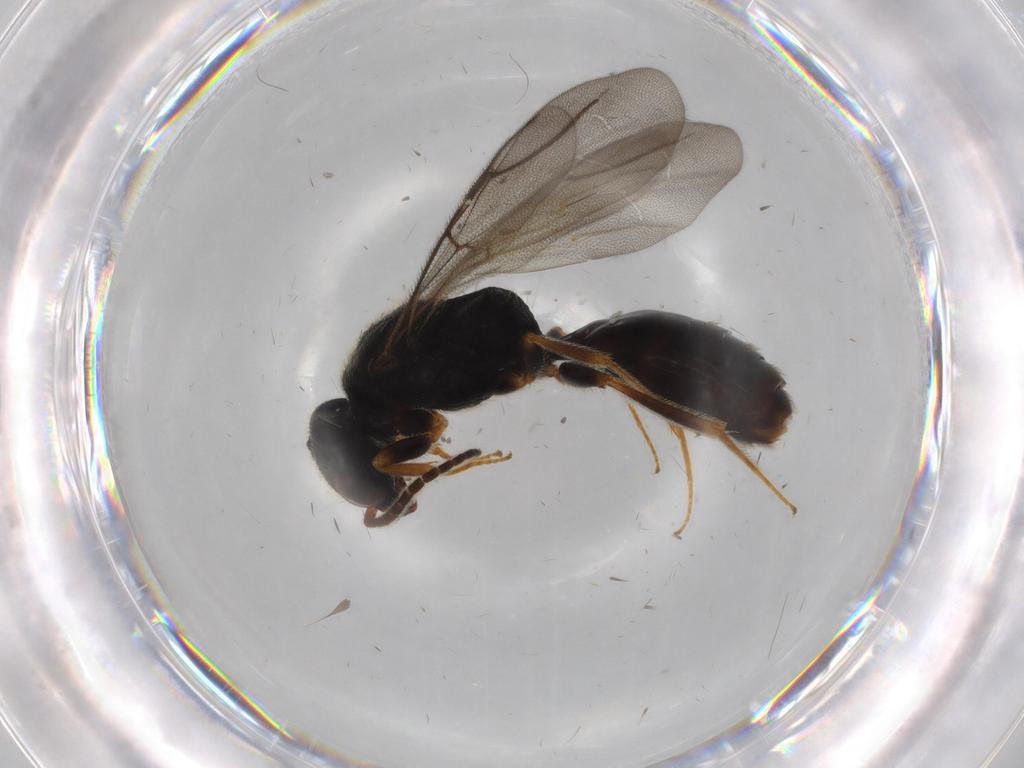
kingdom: Animalia
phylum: Arthropoda
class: Insecta
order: Hymenoptera
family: Bethylidae
